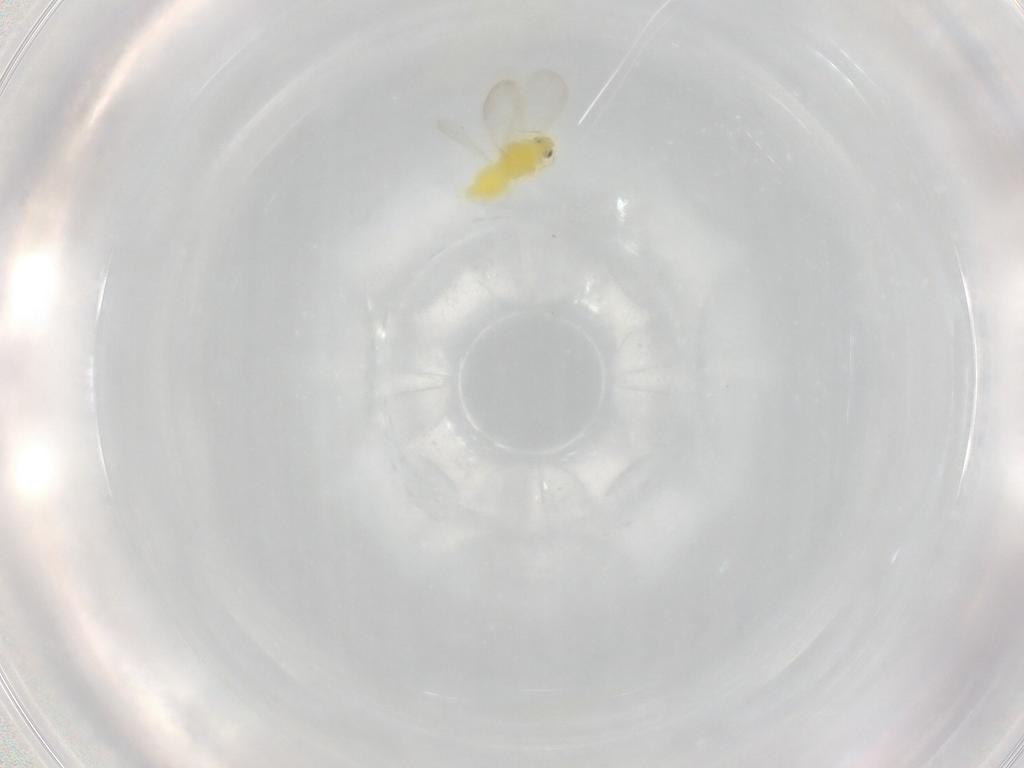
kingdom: Animalia
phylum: Arthropoda
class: Insecta
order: Hemiptera
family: Aleyrodidae
